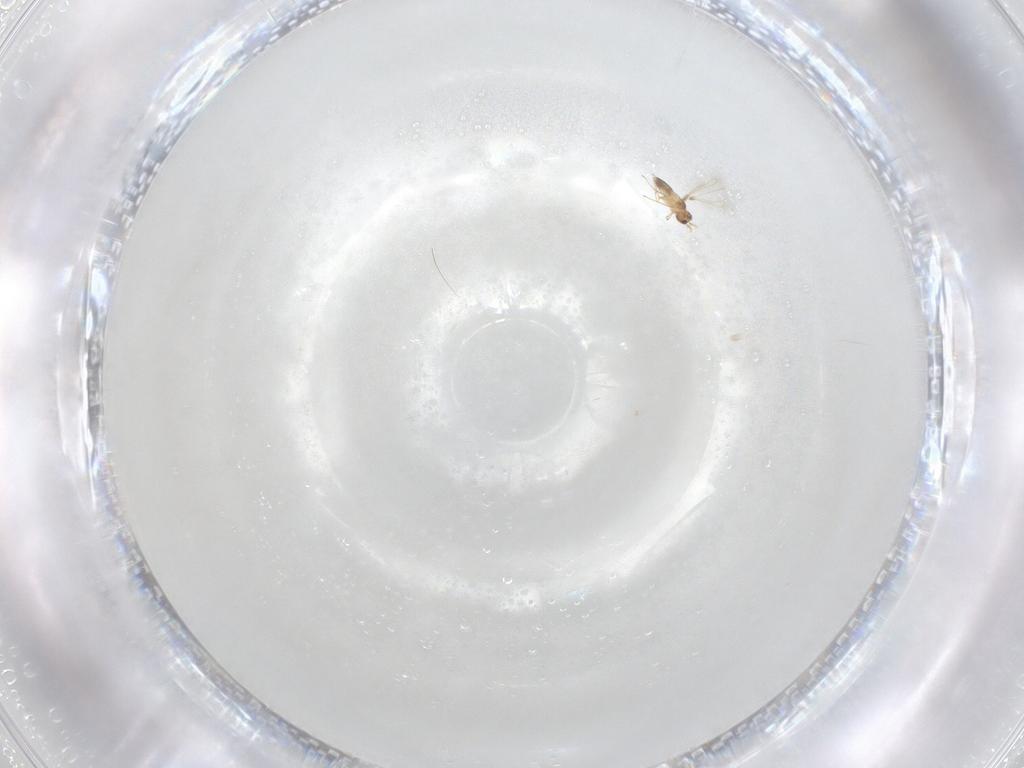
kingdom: Animalia
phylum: Arthropoda
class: Insecta
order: Hymenoptera
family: Mymaridae
